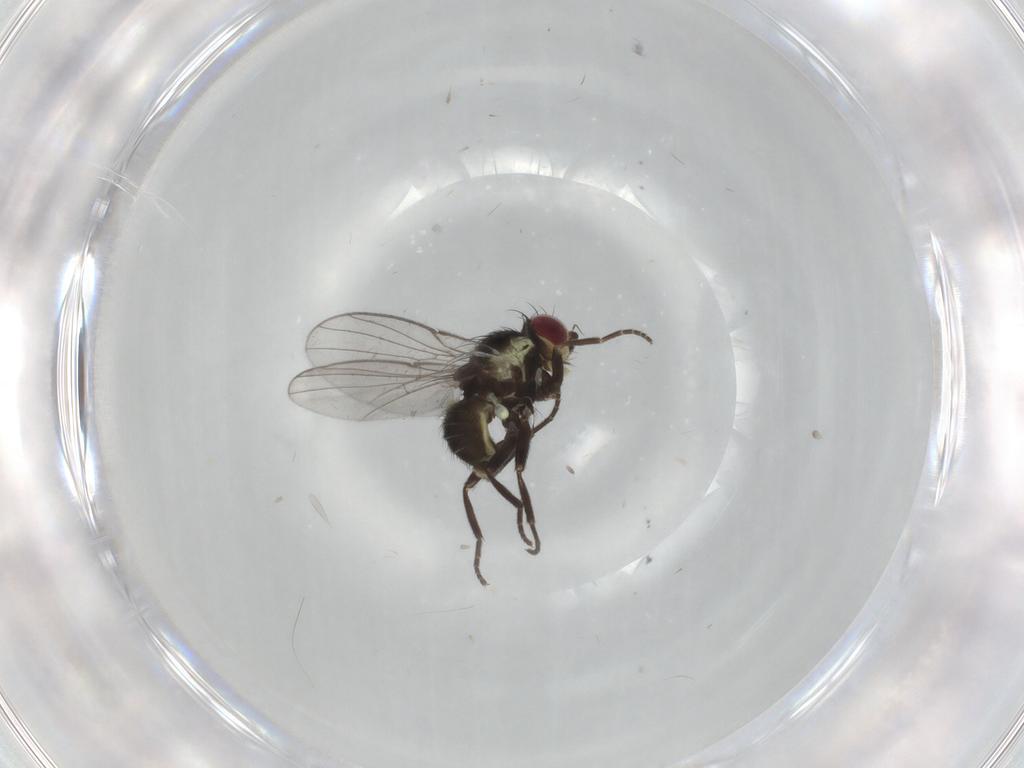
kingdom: Animalia
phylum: Arthropoda
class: Insecta
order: Diptera
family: Agromyzidae
